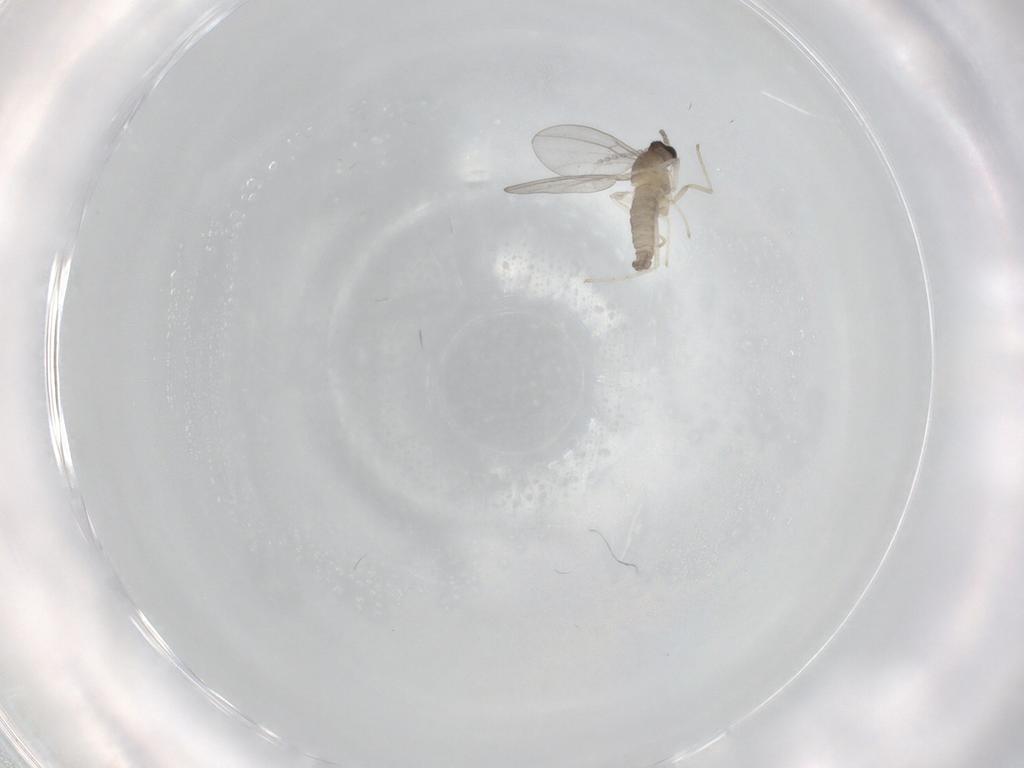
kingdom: Animalia
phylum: Arthropoda
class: Insecta
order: Diptera
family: Cecidomyiidae
